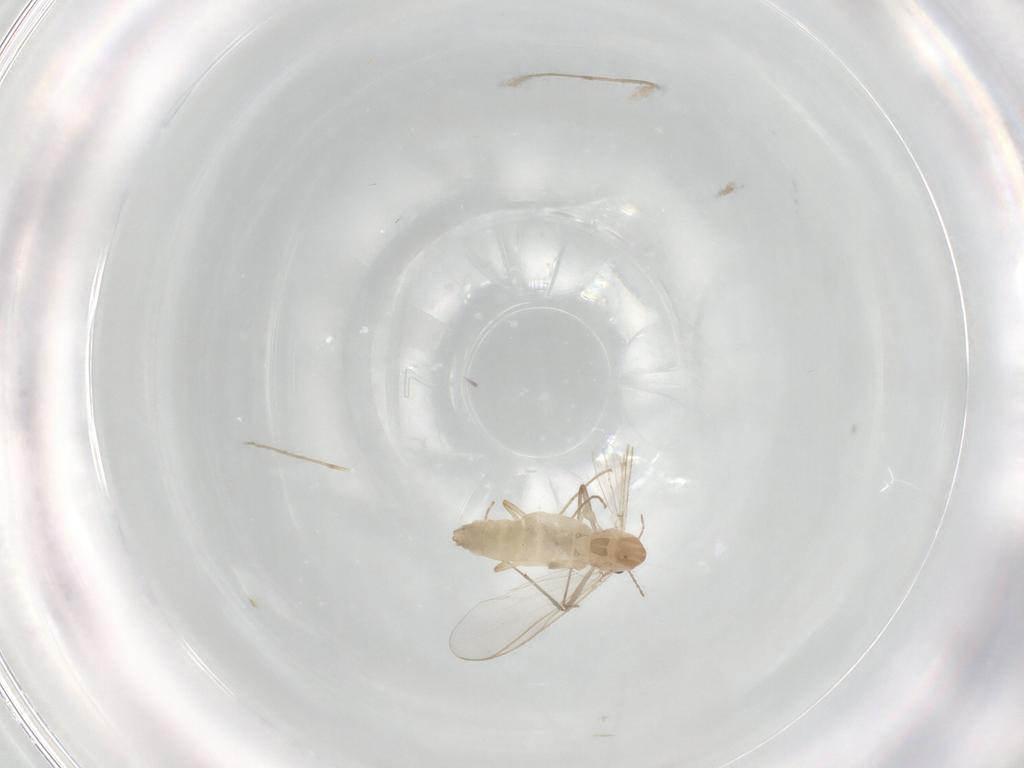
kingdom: Animalia
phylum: Arthropoda
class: Insecta
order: Diptera
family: Chironomidae
